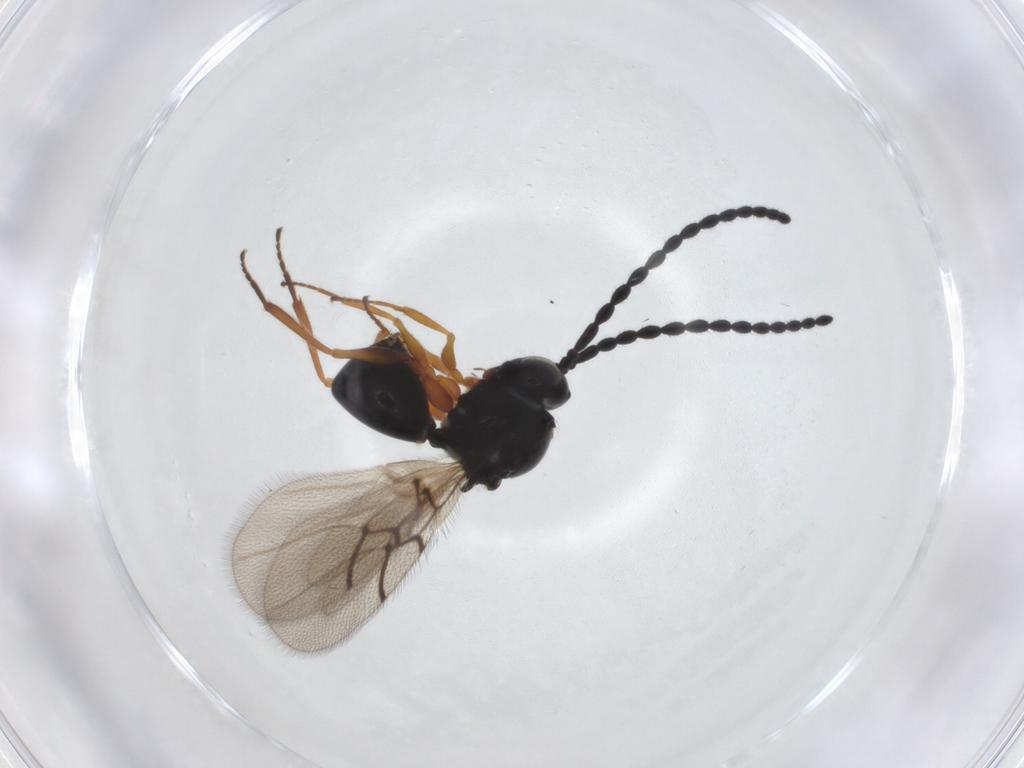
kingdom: Animalia
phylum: Arthropoda
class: Insecta
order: Hymenoptera
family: Figitidae
